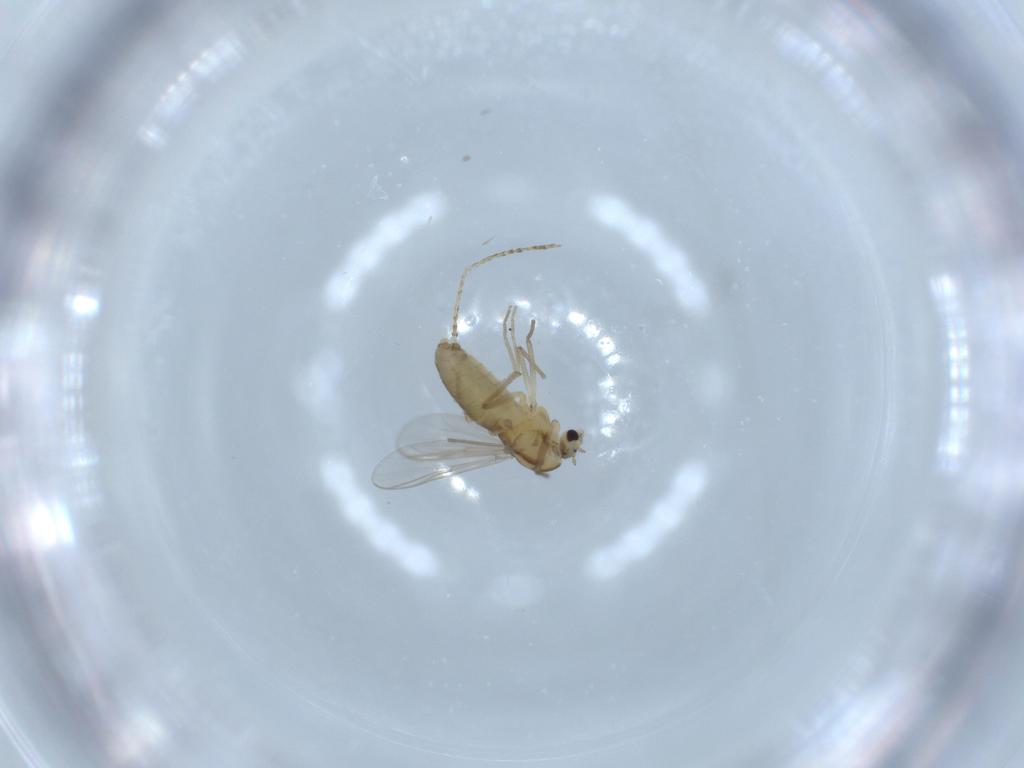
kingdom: Animalia
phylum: Arthropoda
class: Insecta
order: Diptera
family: Chironomidae
